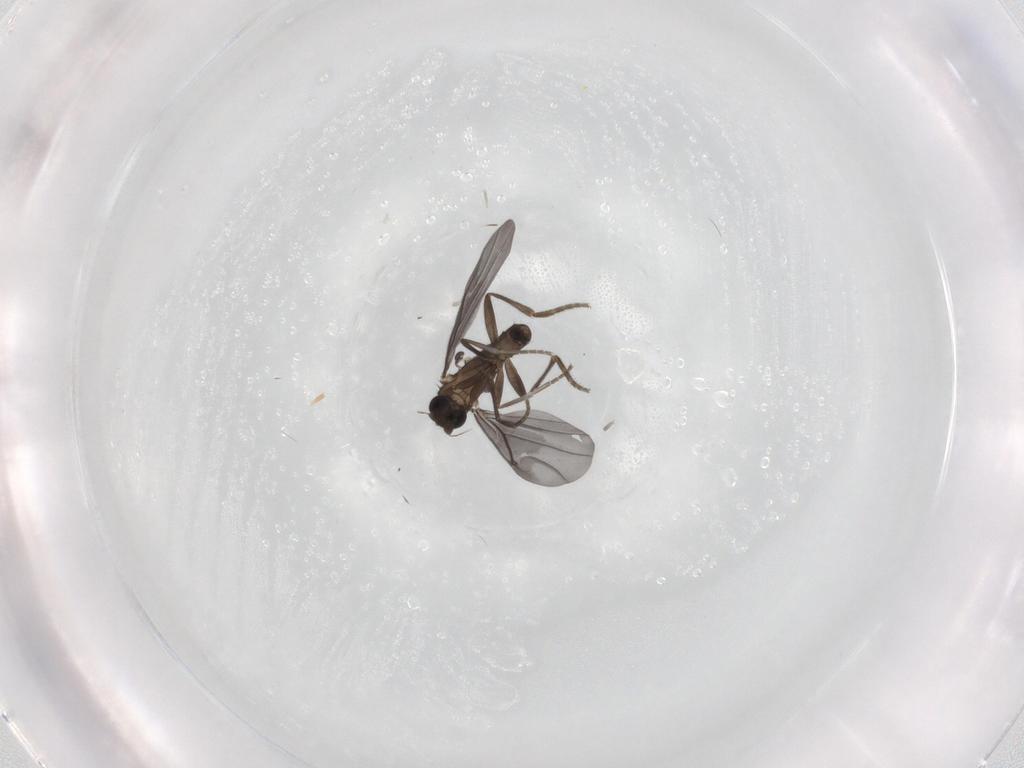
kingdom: Animalia
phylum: Arthropoda
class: Insecta
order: Diptera
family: Phoridae
